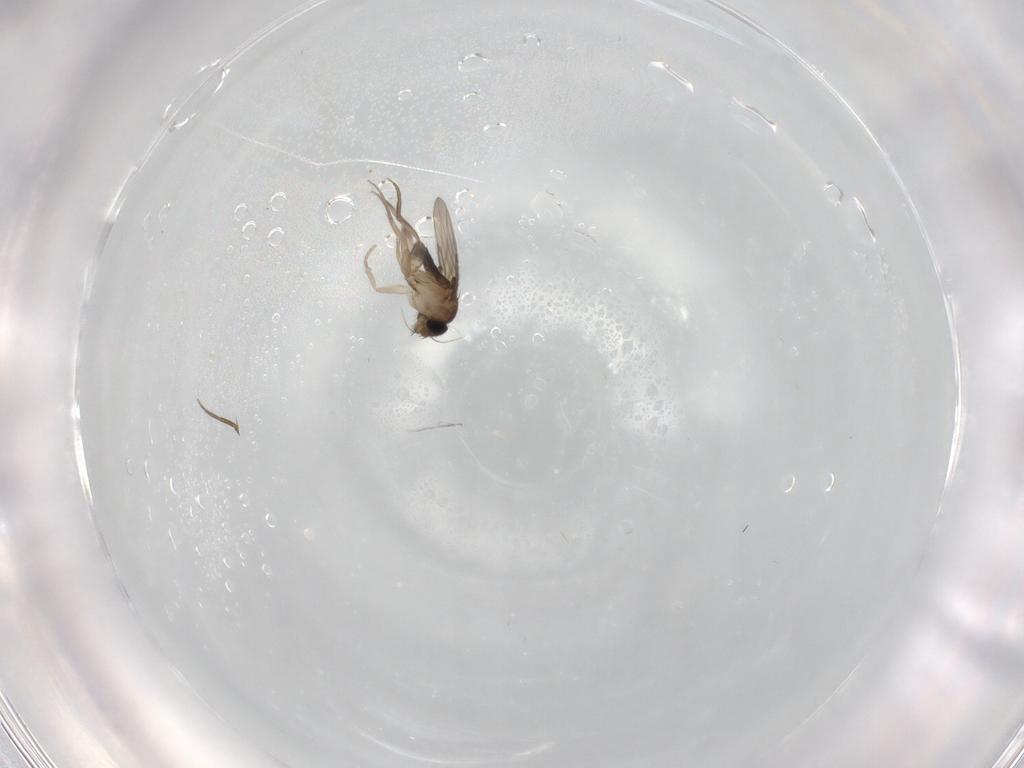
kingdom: Animalia
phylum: Arthropoda
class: Insecta
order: Diptera
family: Phoridae
